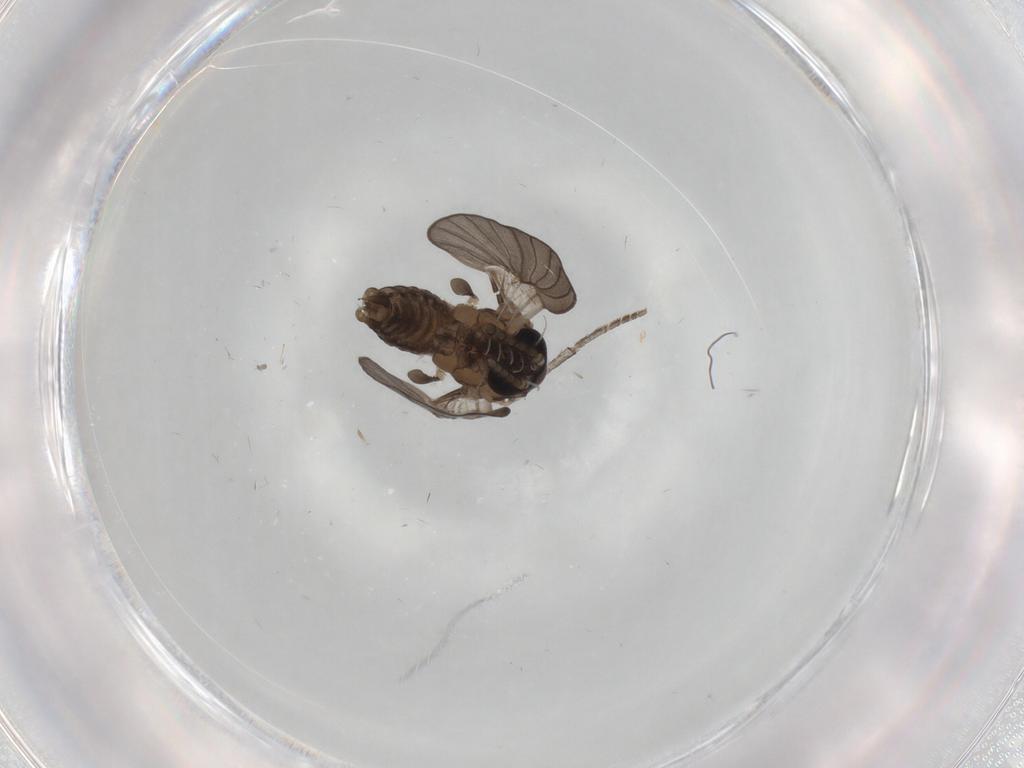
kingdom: Animalia
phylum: Arthropoda
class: Insecta
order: Diptera
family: Psychodidae
